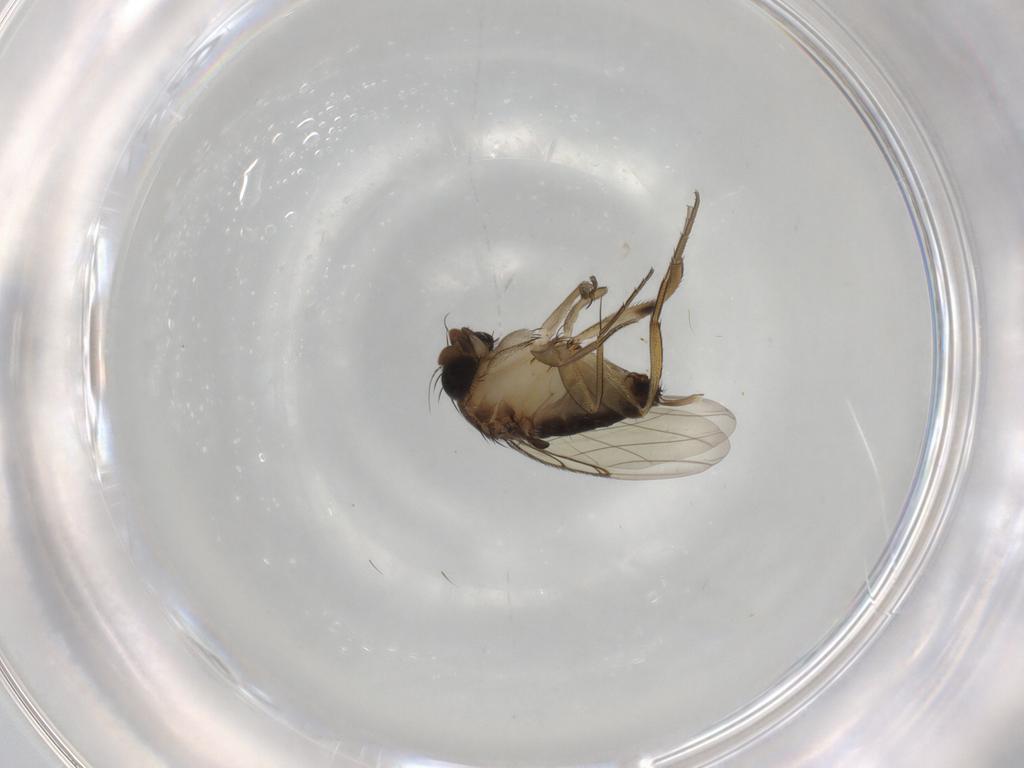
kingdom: Animalia
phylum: Arthropoda
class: Insecta
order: Diptera
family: Phoridae
